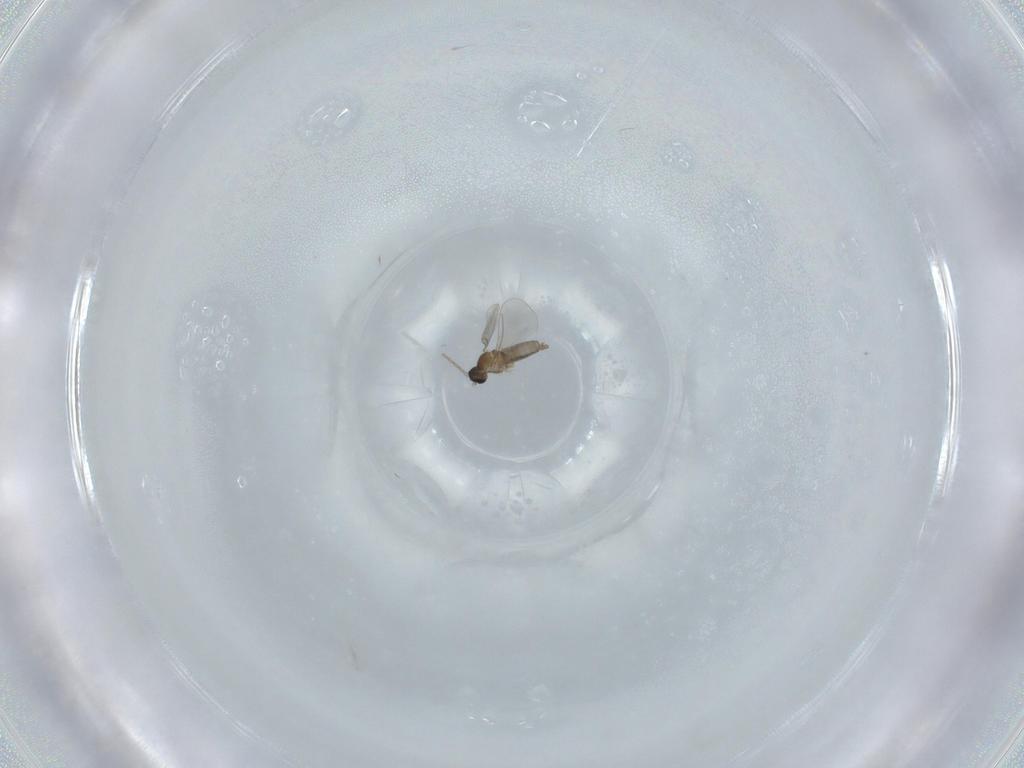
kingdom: Animalia
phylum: Arthropoda
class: Insecta
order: Diptera
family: Cecidomyiidae
